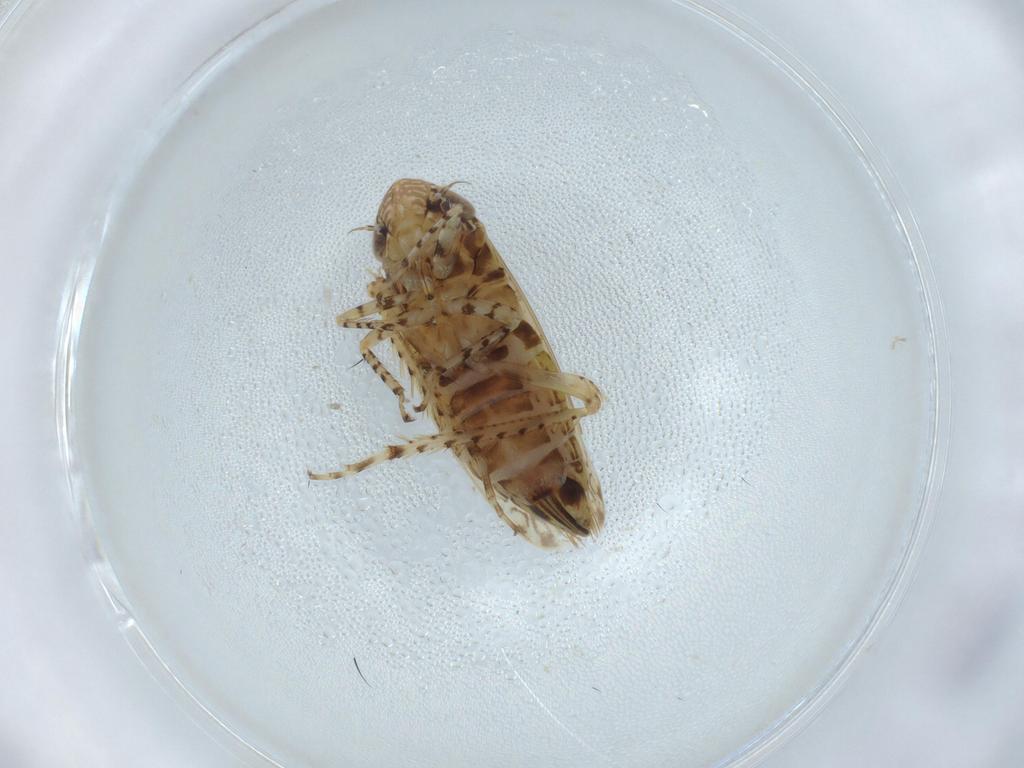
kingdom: Animalia
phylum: Arthropoda
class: Insecta
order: Hemiptera
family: Cicadellidae
